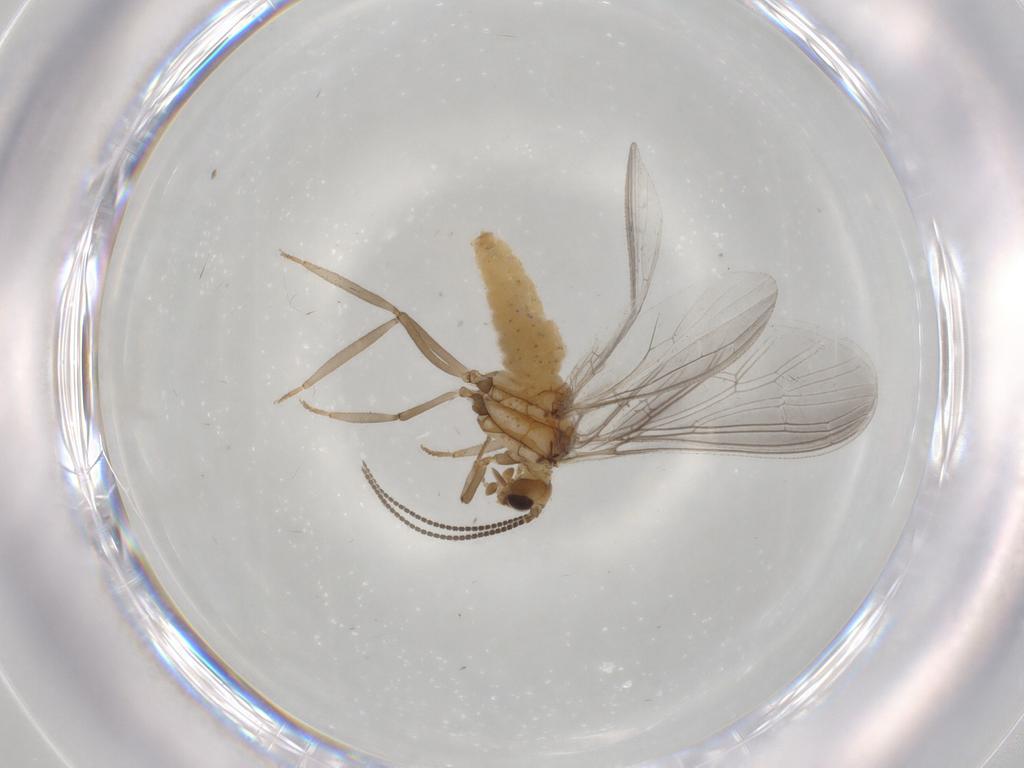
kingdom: Animalia
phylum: Arthropoda
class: Insecta
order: Neuroptera
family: Coniopterygidae
